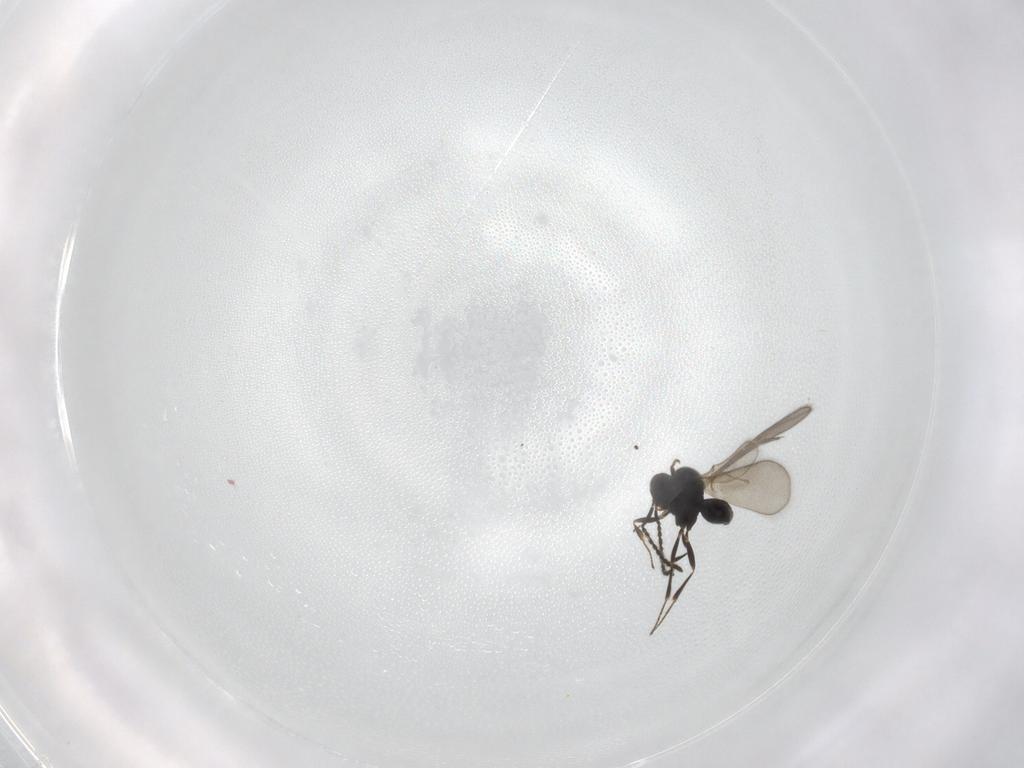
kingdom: Animalia
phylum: Arthropoda
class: Insecta
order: Hymenoptera
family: Scelionidae
